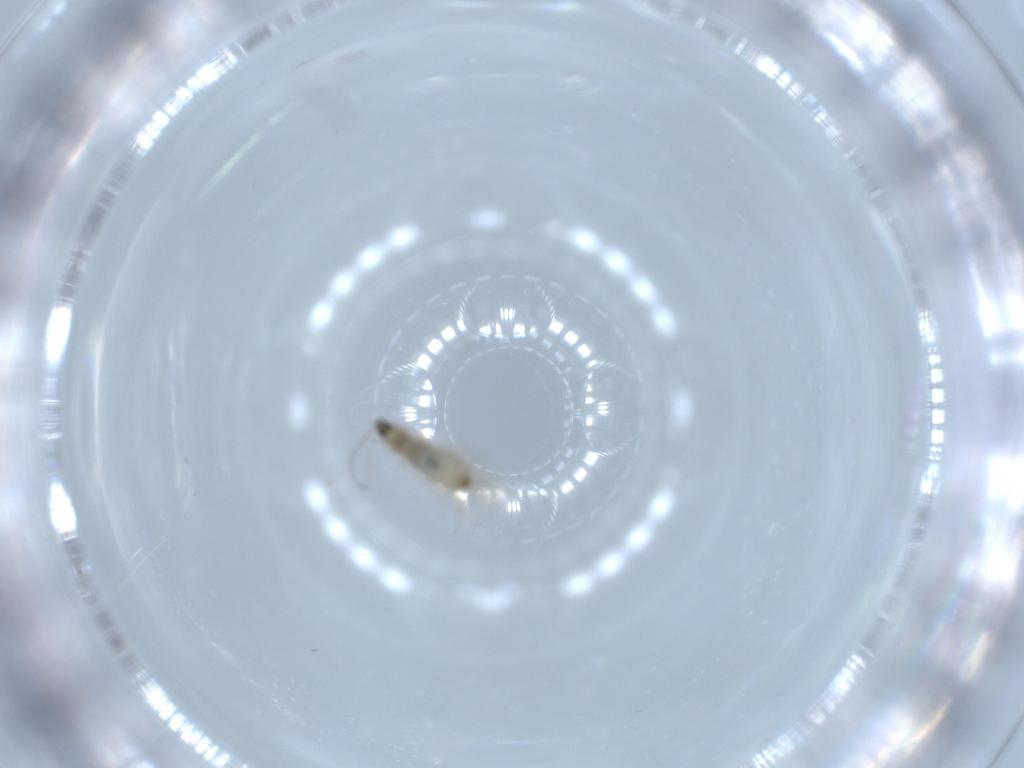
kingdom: Animalia
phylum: Arthropoda
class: Insecta
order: Diptera
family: Cecidomyiidae
